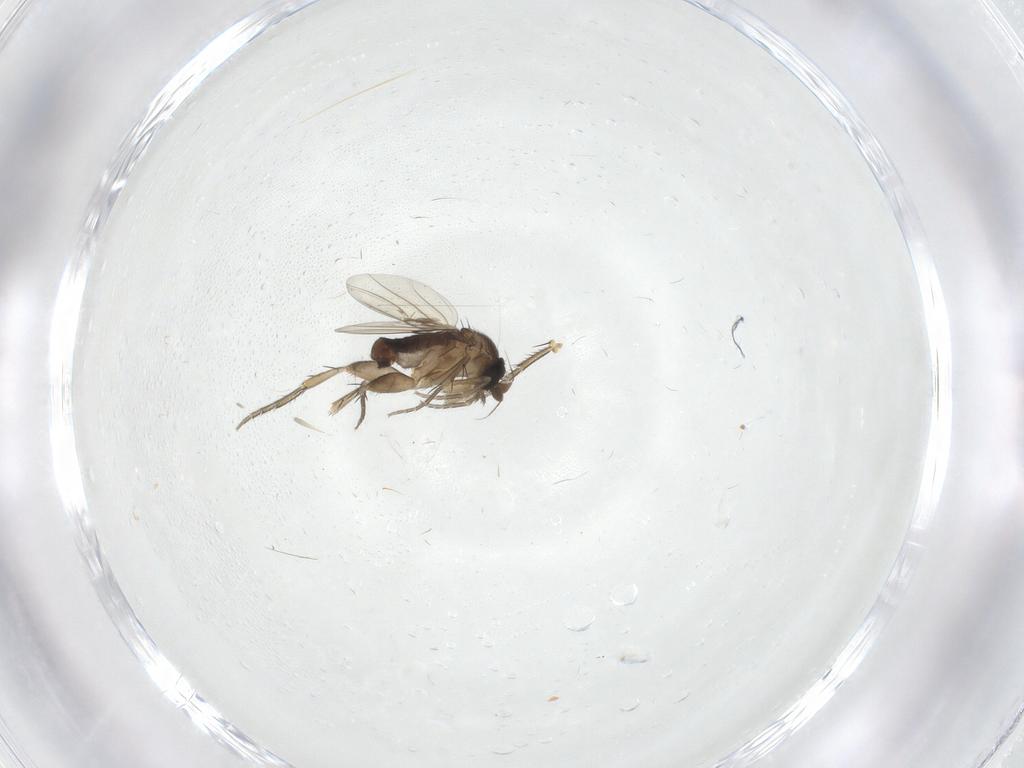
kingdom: Animalia
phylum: Arthropoda
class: Insecta
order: Diptera
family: Phoridae
